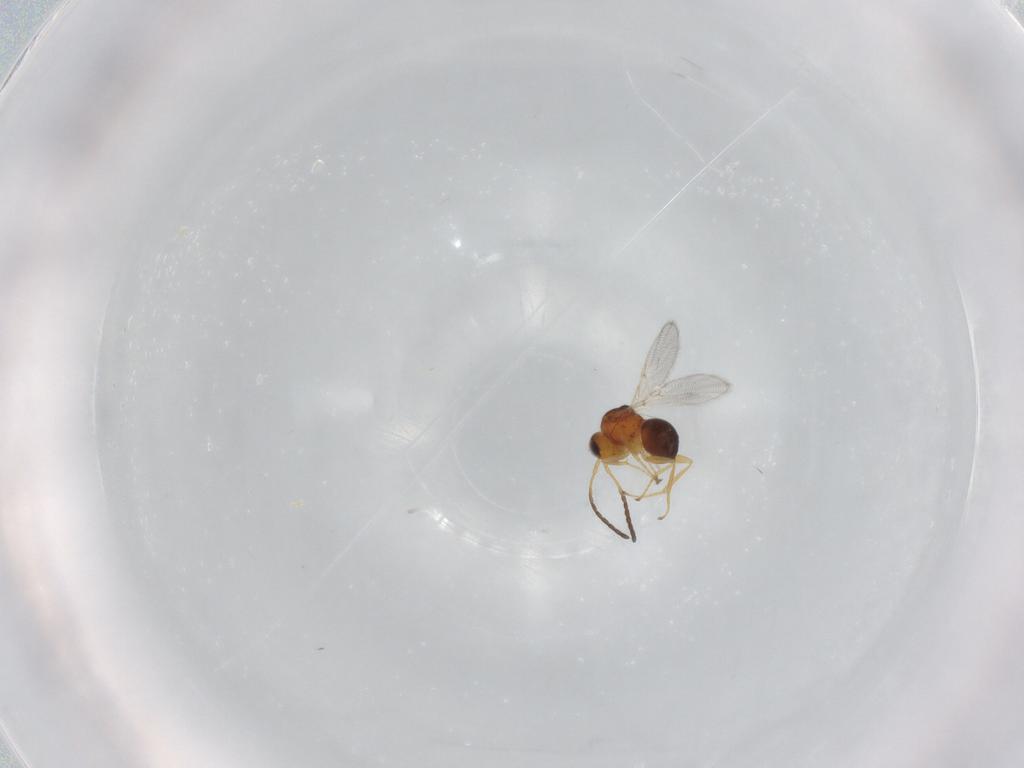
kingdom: Animalia
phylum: Arthropoda
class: Insecta
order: Hymenoptera
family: Figitidae
